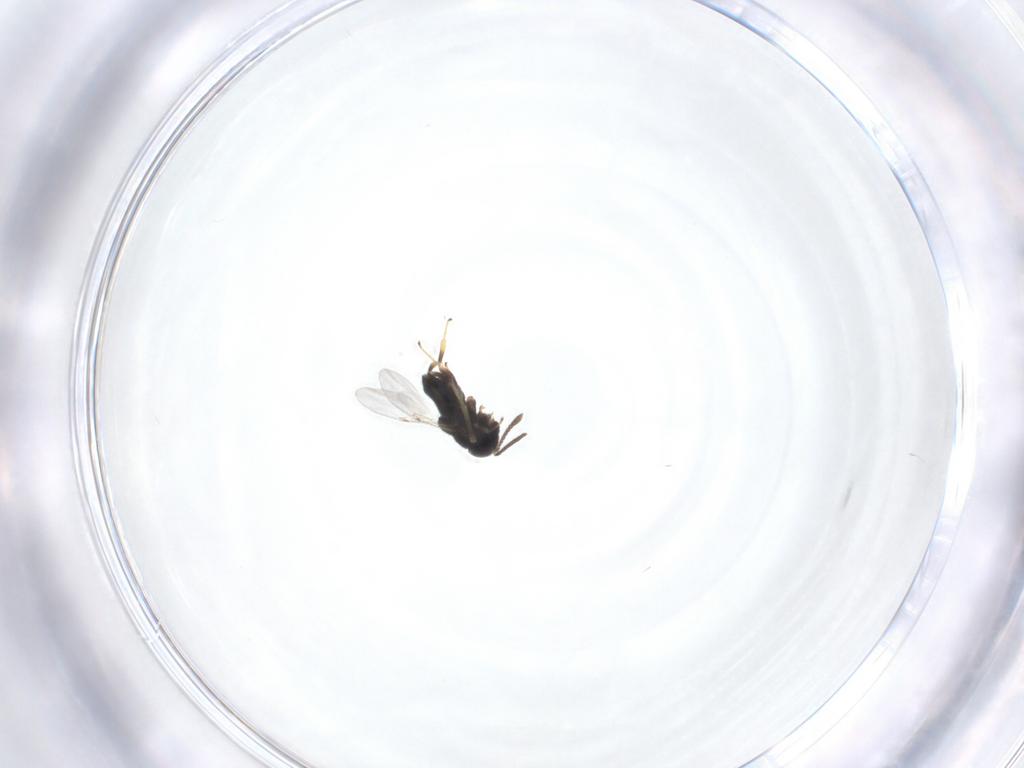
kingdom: Animalia
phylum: Arthropoda
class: Insecta
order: Hymenoptera
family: Encyrtidae
